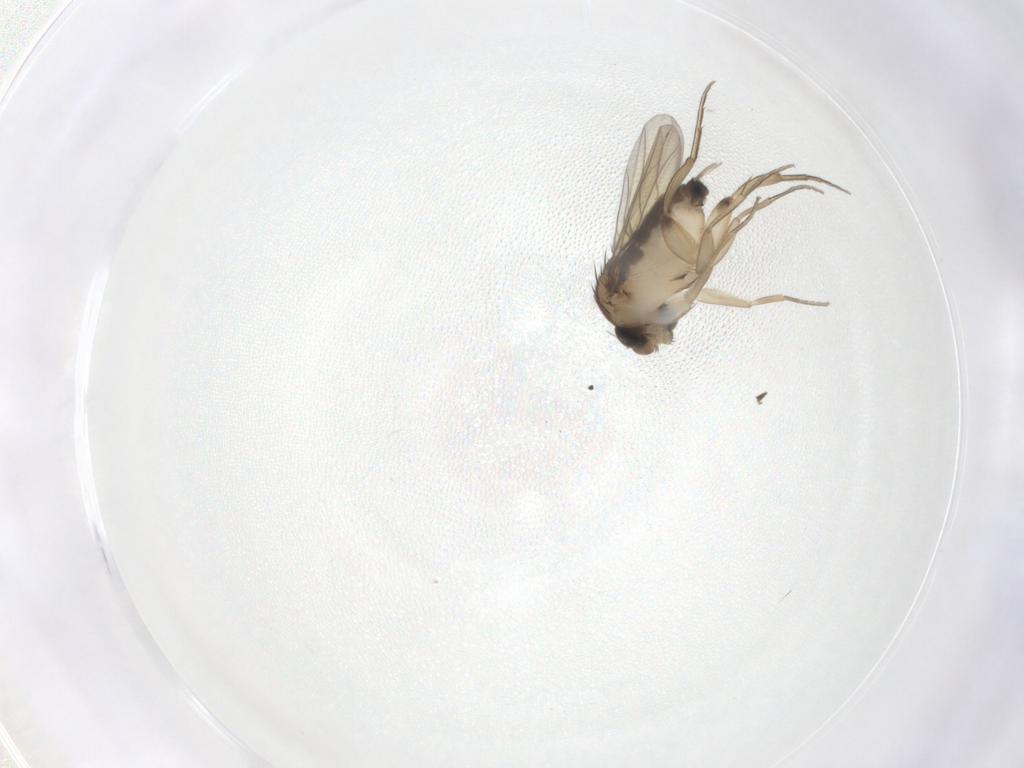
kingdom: Animalia
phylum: Arthropoda
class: Insecta
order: Diptera
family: Phoridae
